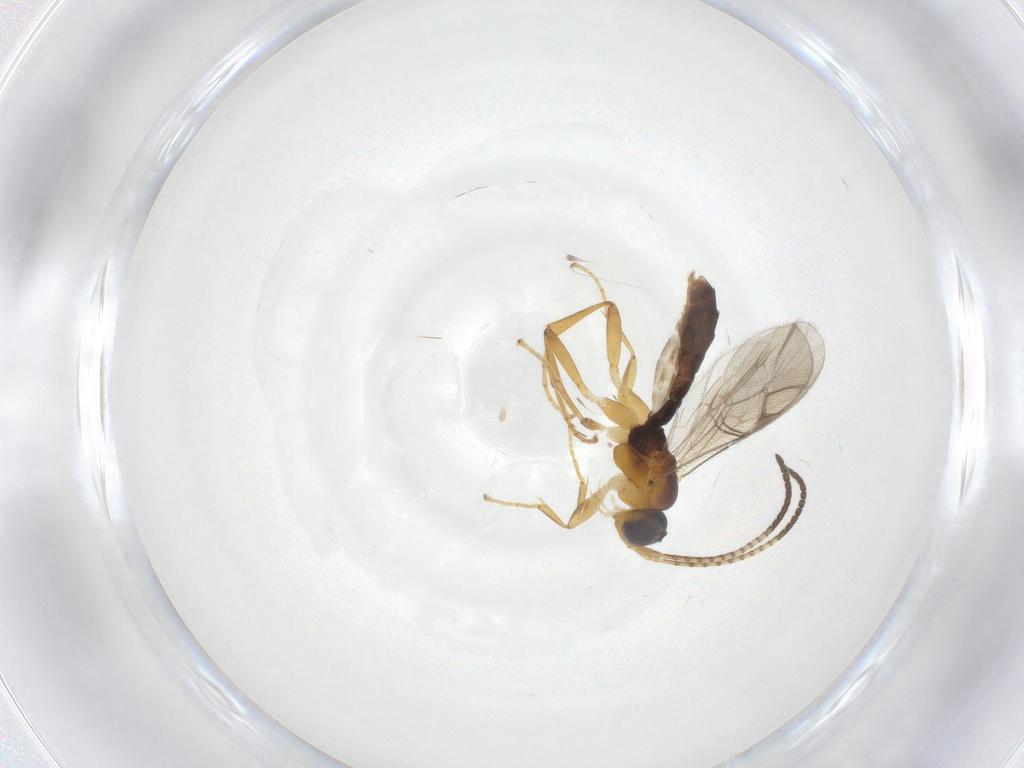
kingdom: Animalia
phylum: Arthropoda
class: Insecta
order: Hymenoptera
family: Ichneumonidae
